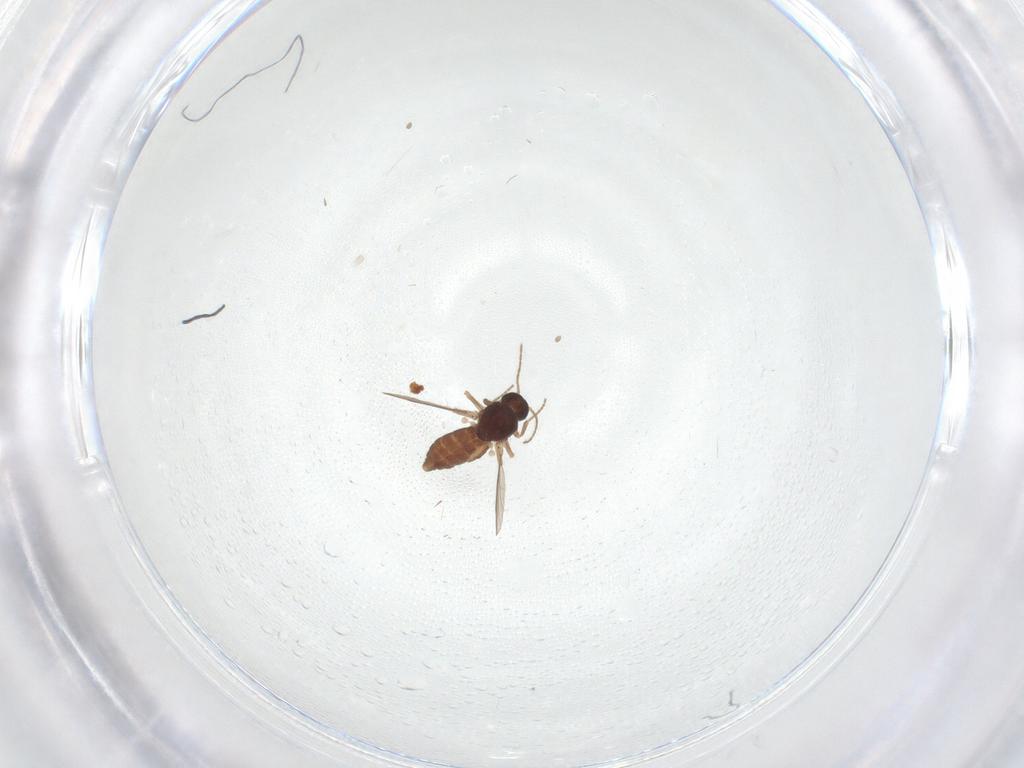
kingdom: Animalia
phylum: Arthropoda
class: Insecta
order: Diptera
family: Ceratopogonidae
